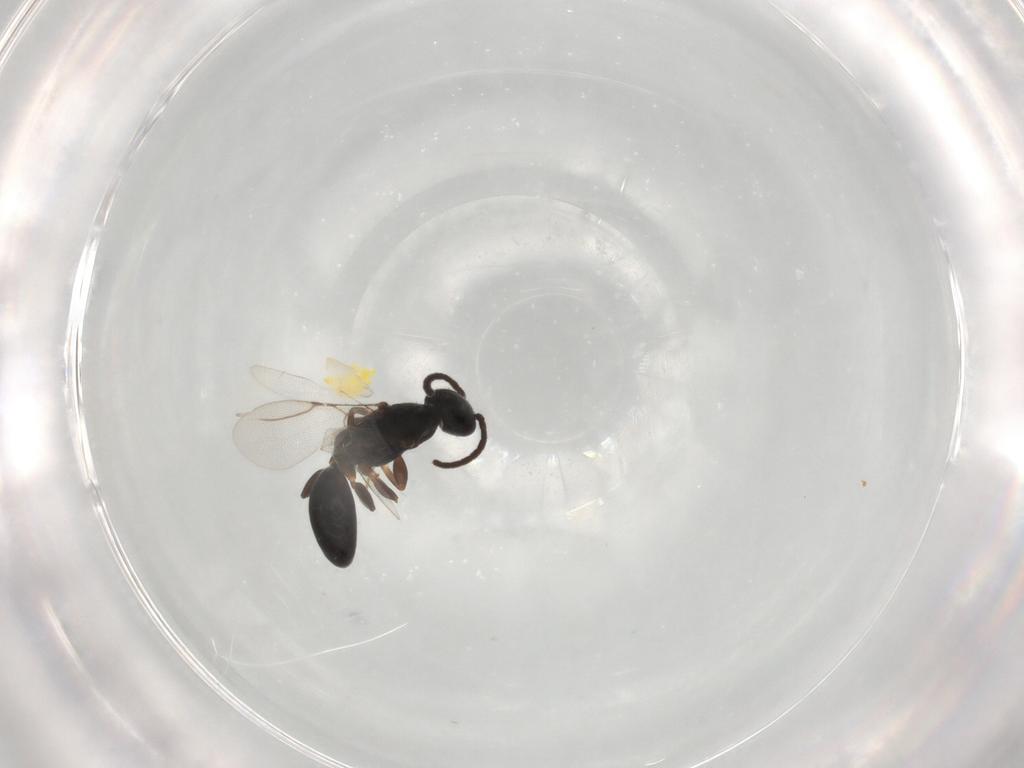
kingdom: Animalia
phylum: Arthropoda
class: Insecta
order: Hymenoptera
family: Formicidae
